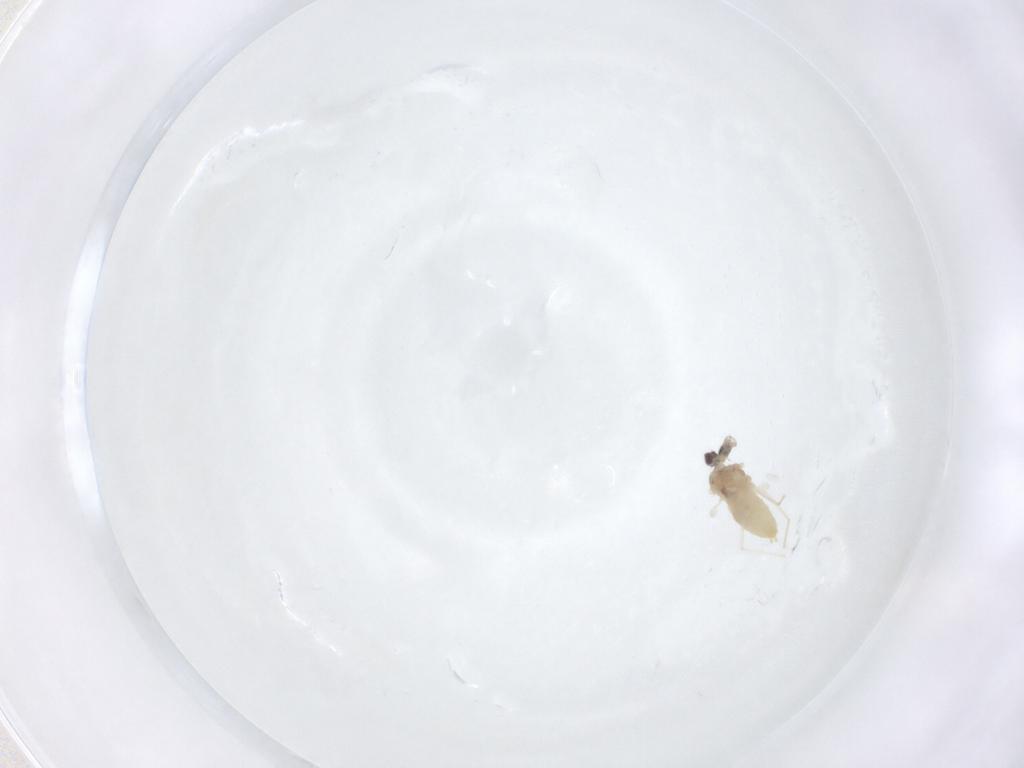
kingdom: Animalia
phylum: Arthropoda
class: Insecta
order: Diptera
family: Cecidomyiidae
